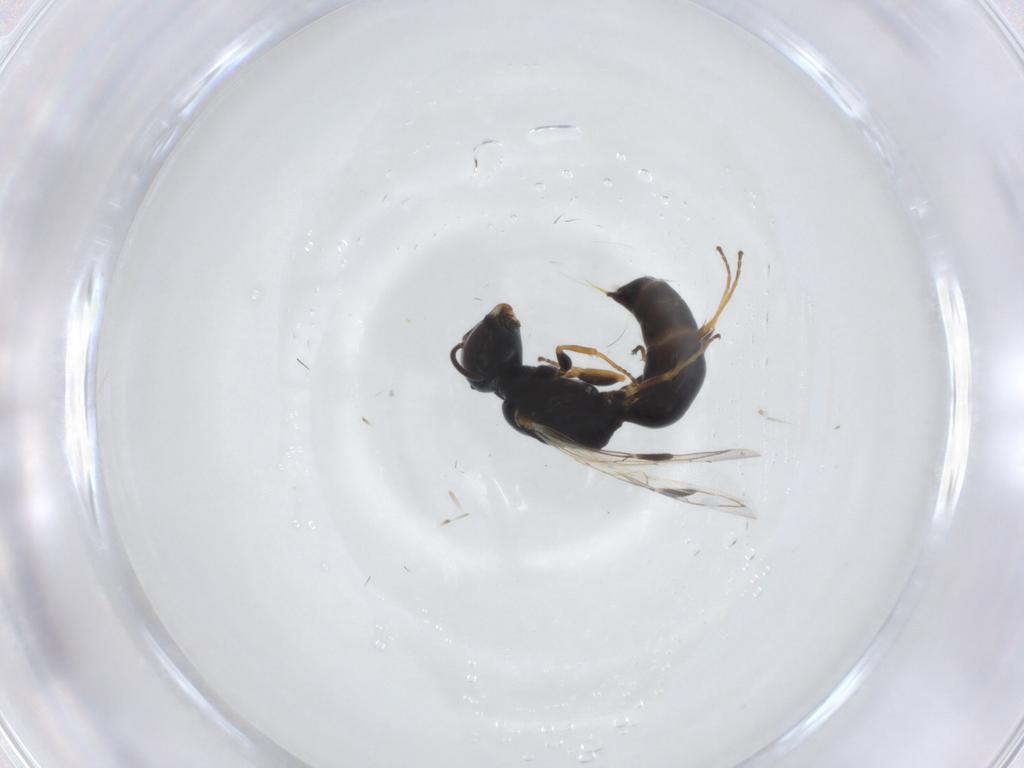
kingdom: Animalia
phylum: Arthropoda
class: Insecta
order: Hymenoptera
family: Crabronidae
